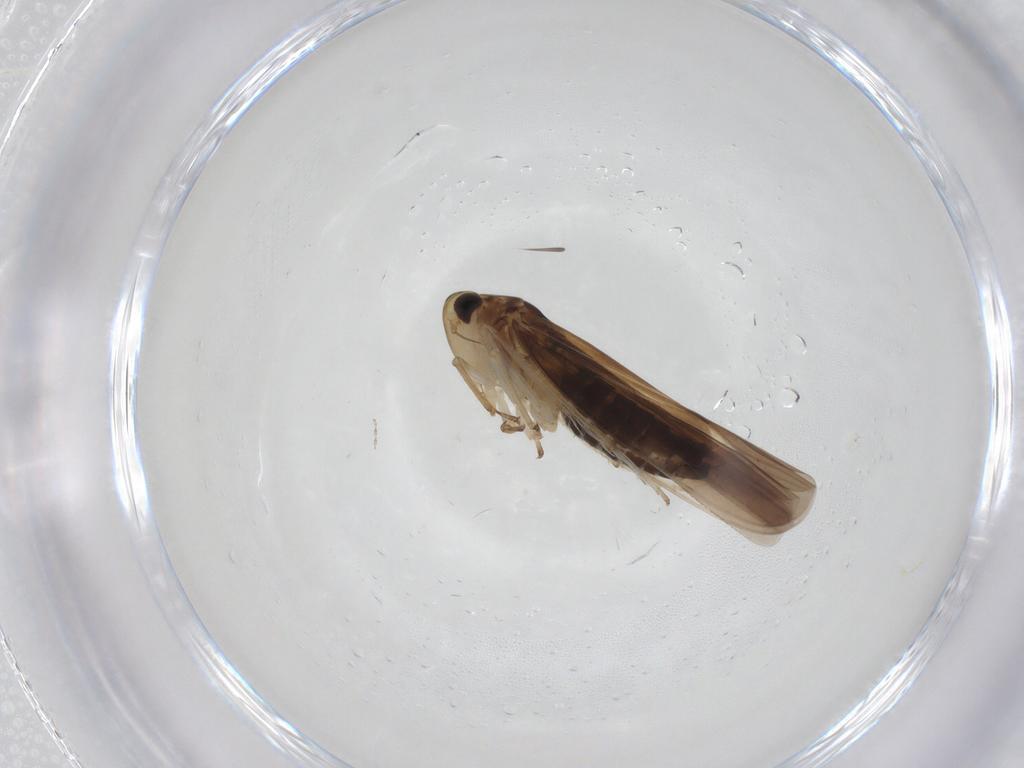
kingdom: Animalia
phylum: Arthropoda
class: Insecta
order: Hemiptera
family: Cicadellidae
